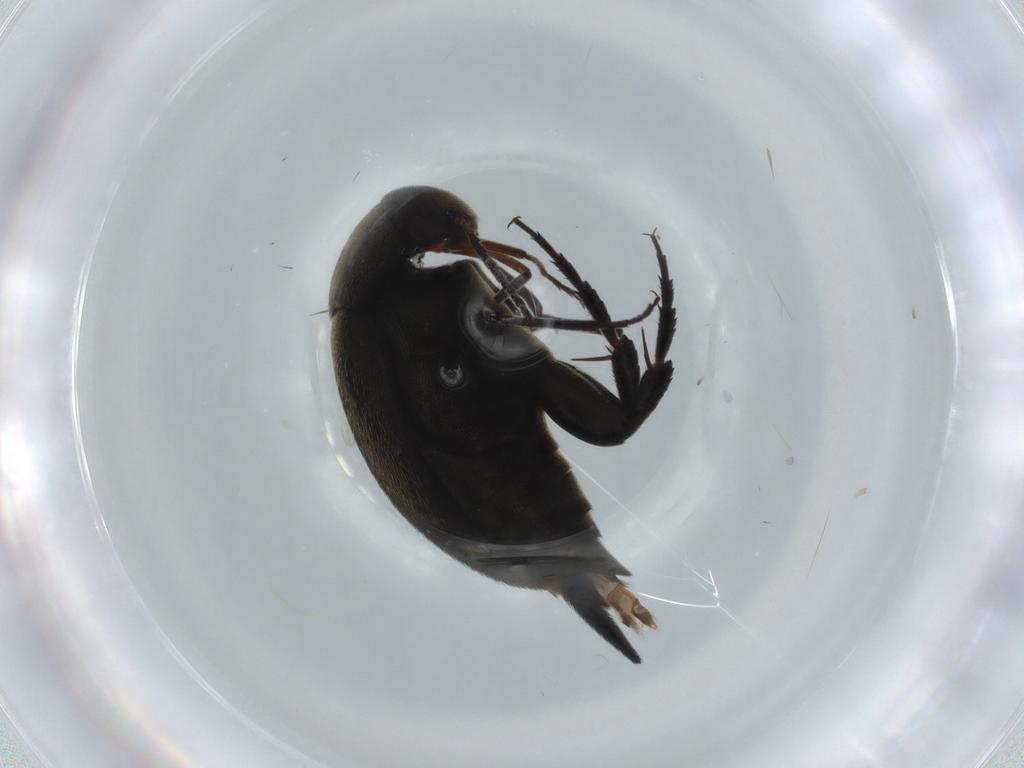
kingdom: Animalia
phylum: Arthropoda
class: Insecta
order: Coleoptera
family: Mordellidae
